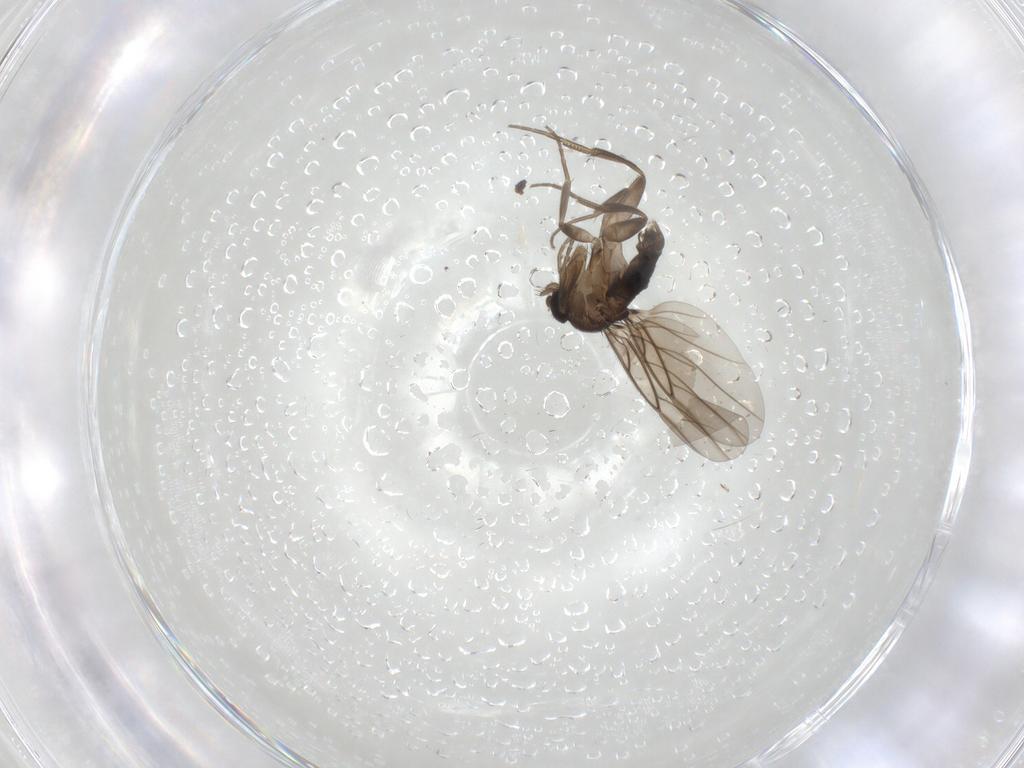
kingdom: Animalia
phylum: Arthropoda
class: Insecta
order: Diptera
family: Phoridae
